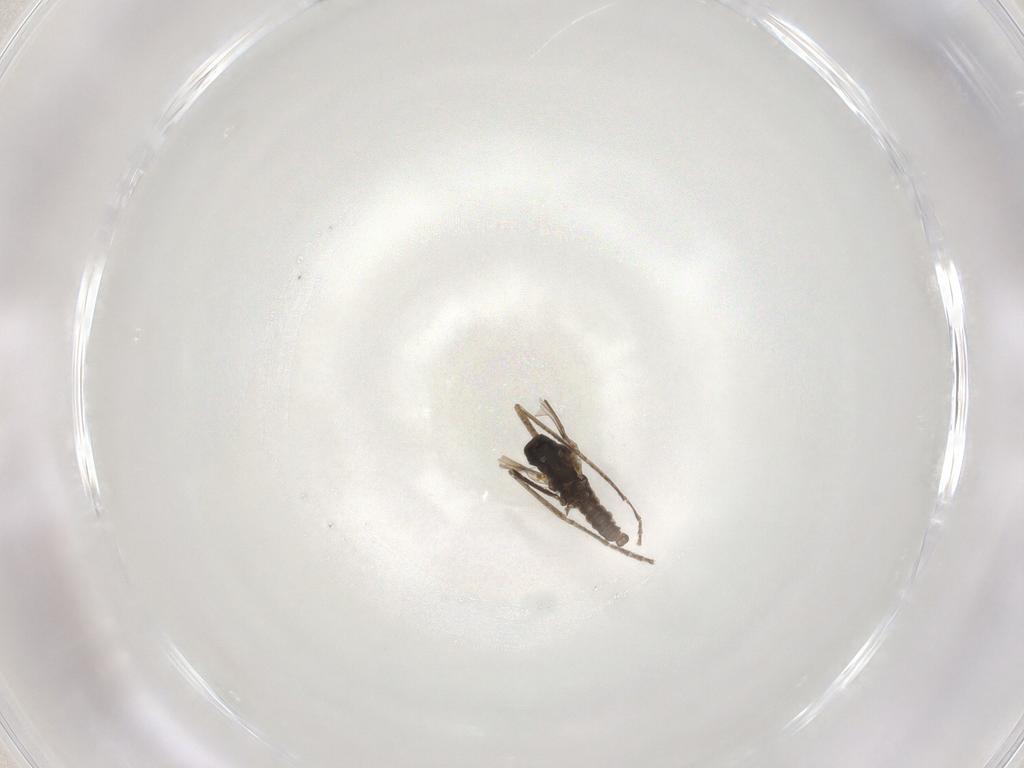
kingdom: Animalia
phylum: Arthropoda
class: Insecta
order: Diptera
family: Cecidomyiidae
